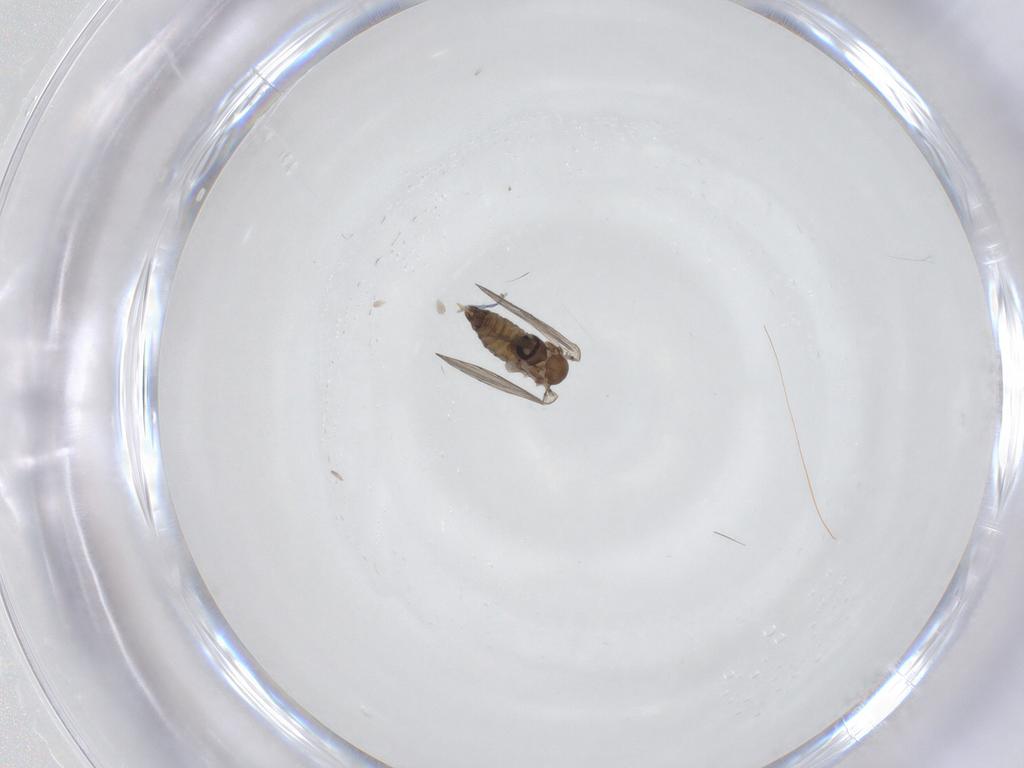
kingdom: Animalia
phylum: Arthropoda
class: Insecta
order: Diptera
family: Psychodidae
